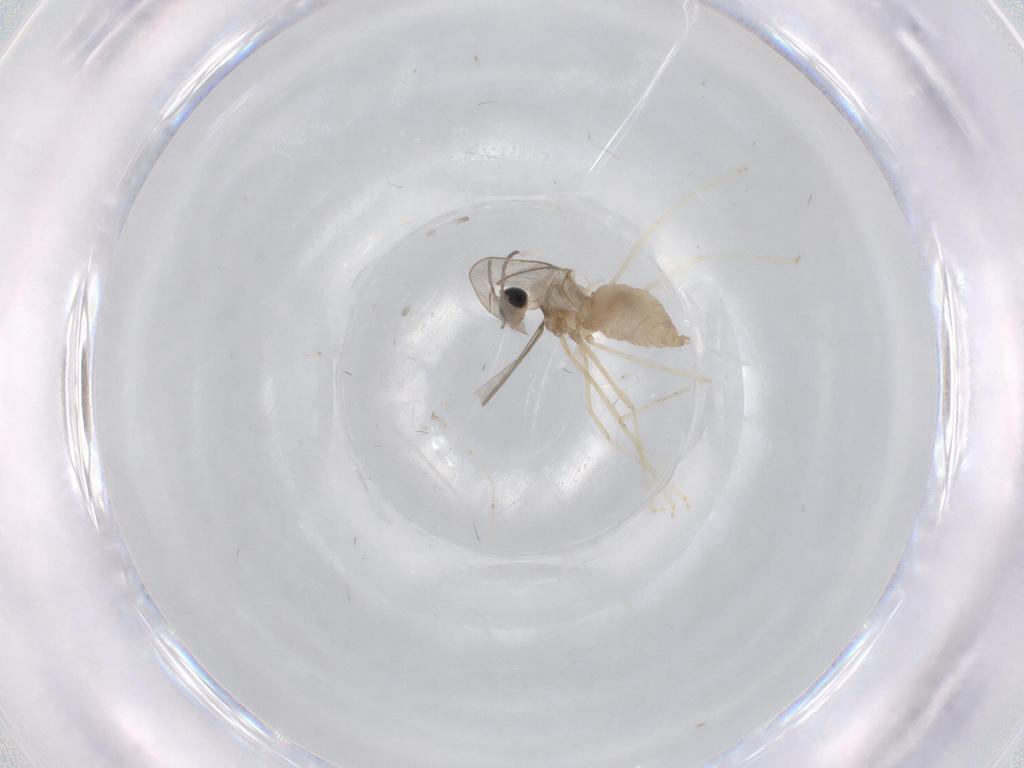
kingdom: Animalia
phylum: Arthropoda
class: Insecta
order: Diptera
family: Cecidomyiidae
